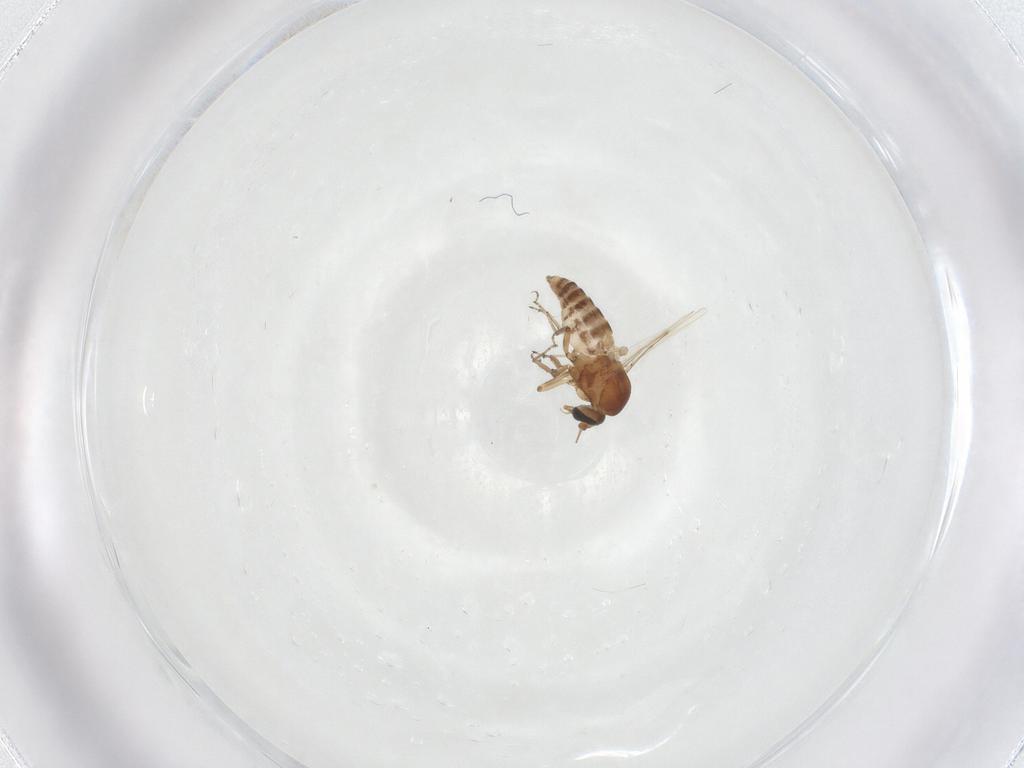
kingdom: Animalia
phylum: Arthropoda
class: Insecta
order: Diptera
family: Ceratopogonidae
